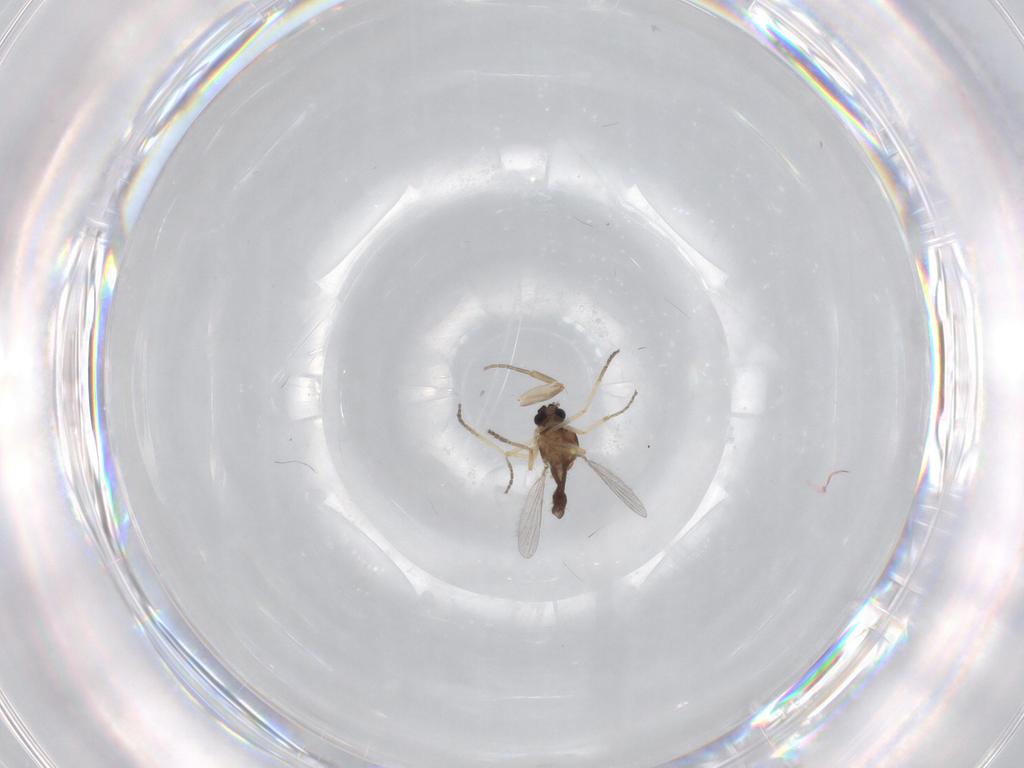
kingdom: Animalia
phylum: Arthropoda
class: Insecta
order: Diptera
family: Phoridae
